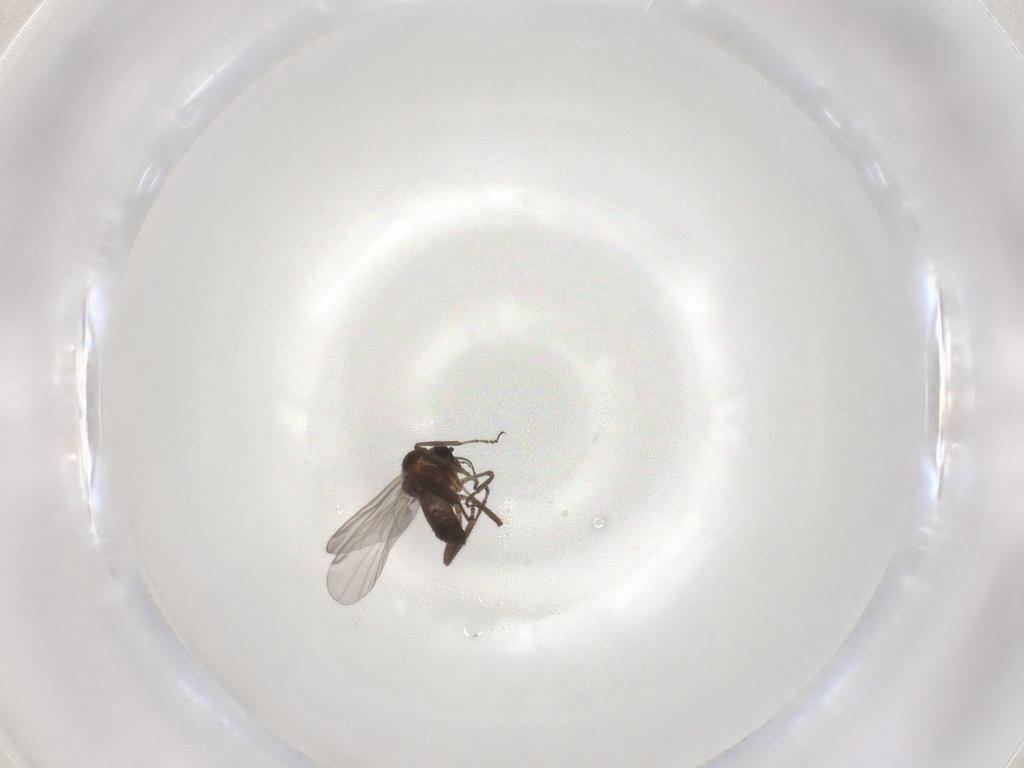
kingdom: Animalia
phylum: Arthropoda
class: Insecta
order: Diptera
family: Ceratopogonidae
